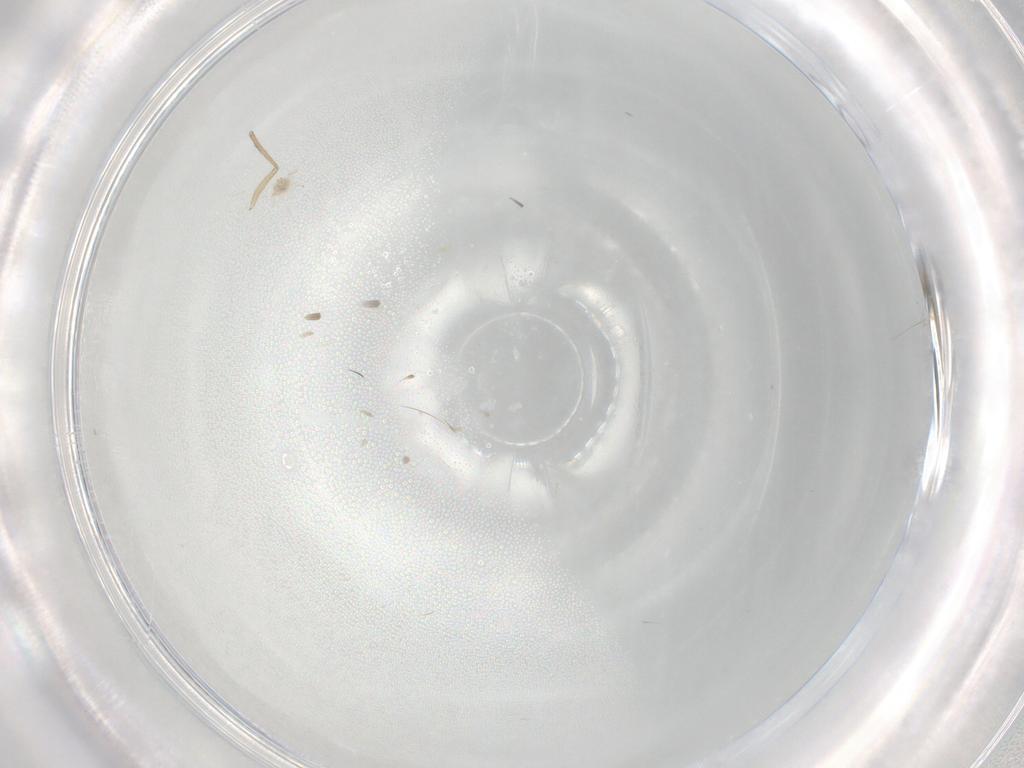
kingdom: Animalia
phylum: Arthropoda
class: Insecta
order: Diptera
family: Cecidomyiidae
